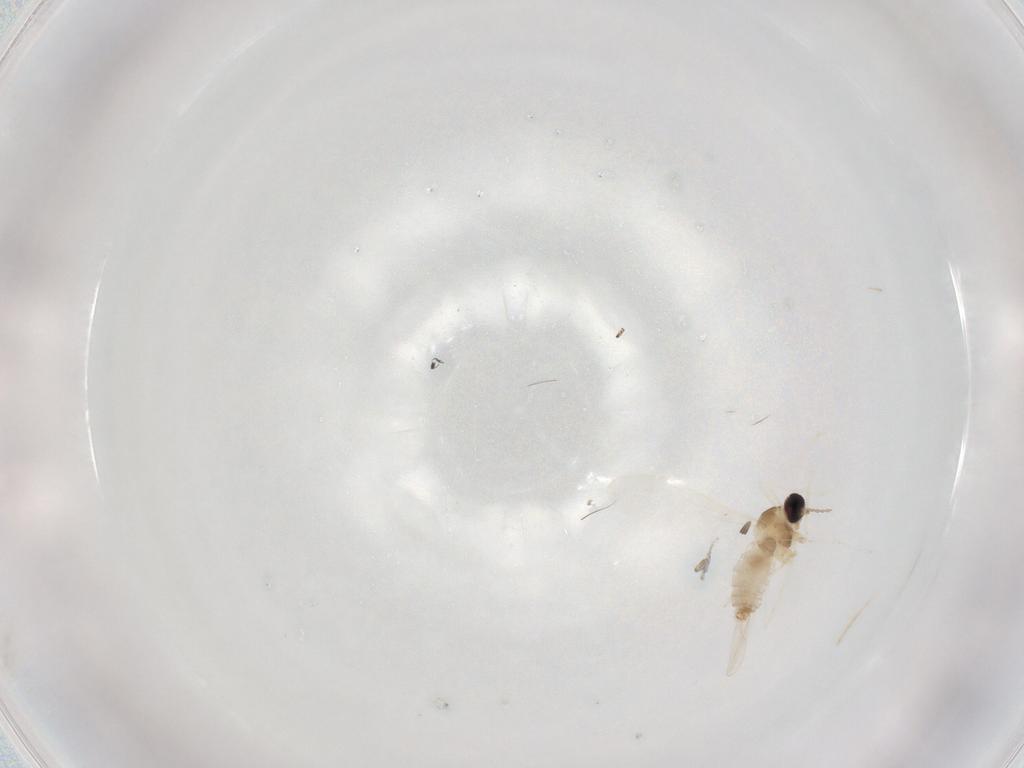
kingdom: Animalia
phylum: Arthropoda
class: Insecta
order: Diptera
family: Cecidomyiidae
